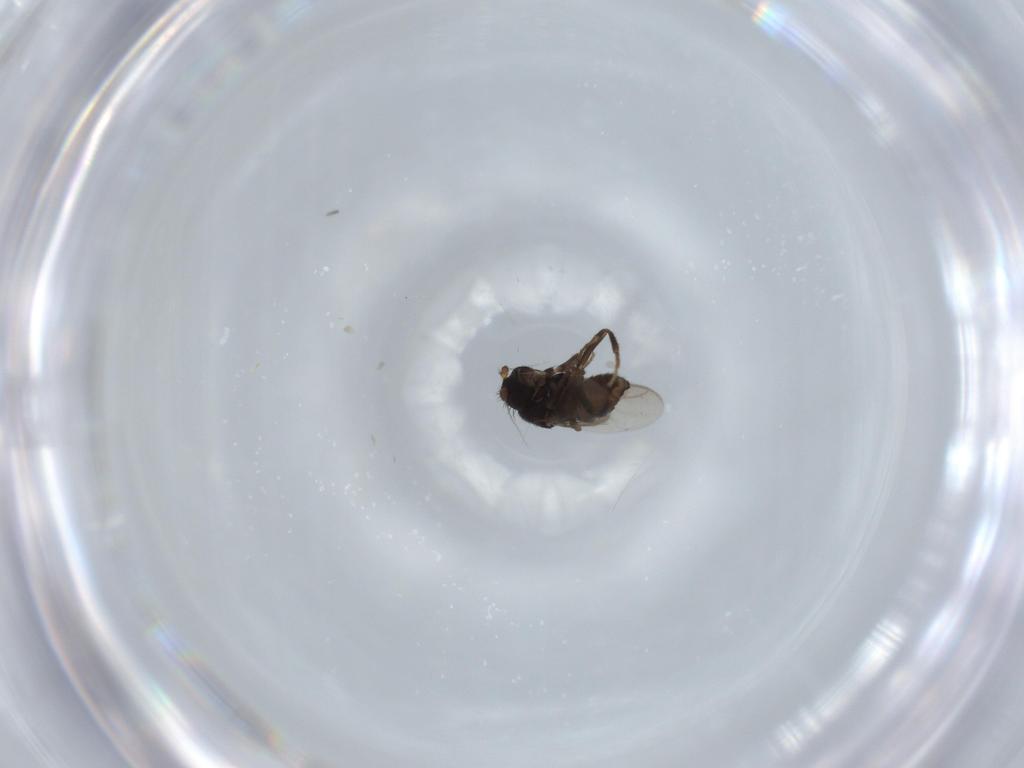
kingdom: Animalia
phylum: Arthropoda
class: Insecta
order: Diptera
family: Sphaeroceridae
